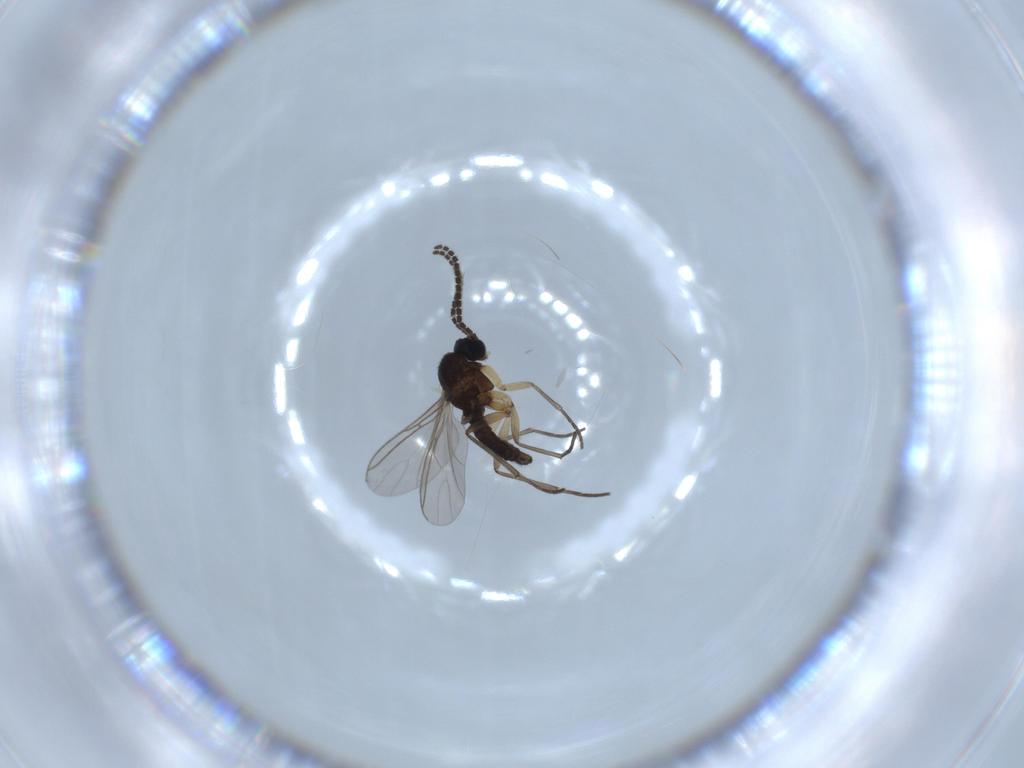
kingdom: Animalia
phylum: Arthropoda
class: Insecta
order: Diptera
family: Sciaridae
